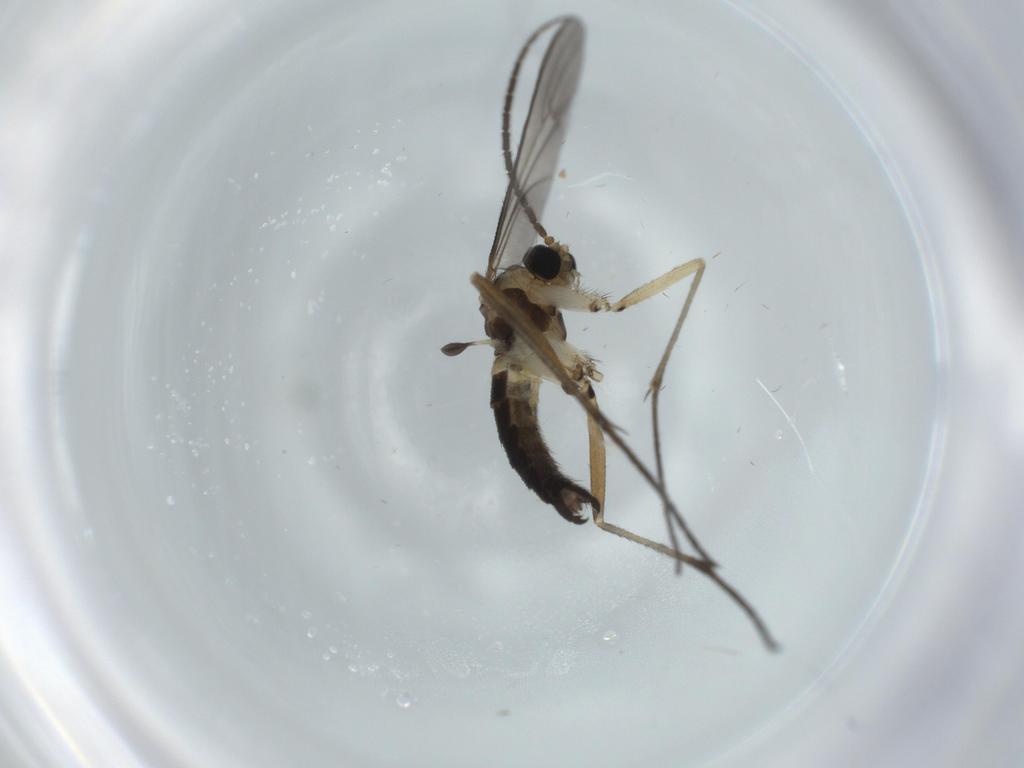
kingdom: Animalia
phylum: Arthropoda
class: Insecta
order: Diptera
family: Sciaridae
